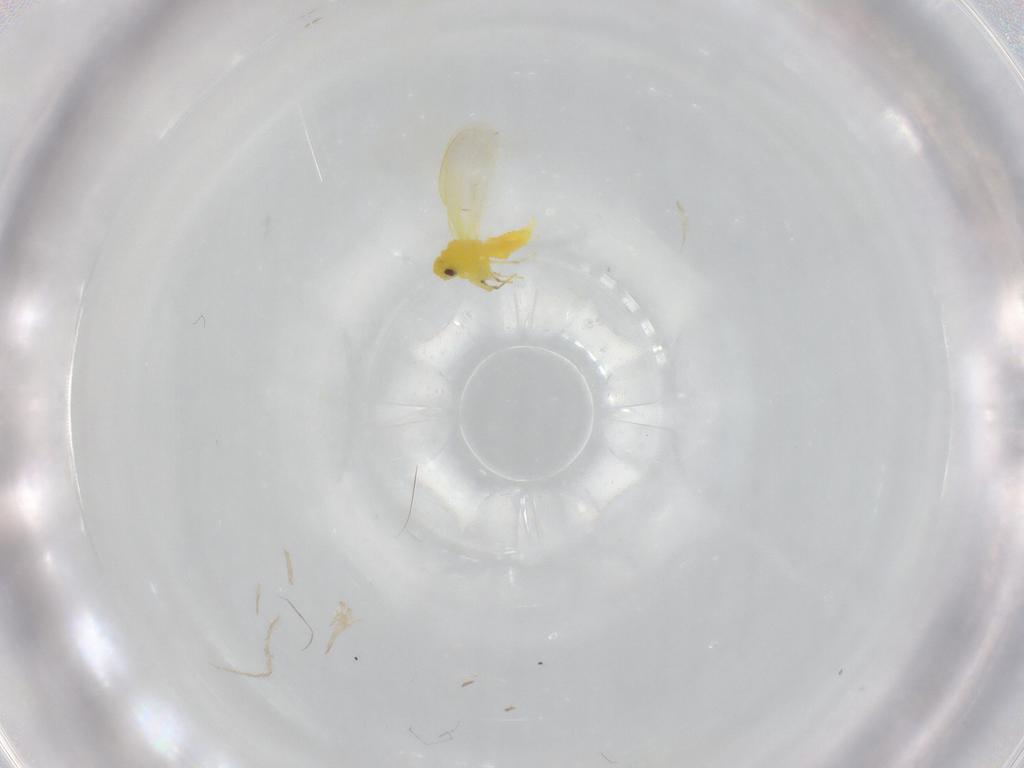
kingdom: Animalia
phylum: Arthropoda
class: Insecta
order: Hemiptera
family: Aleyrodidae
